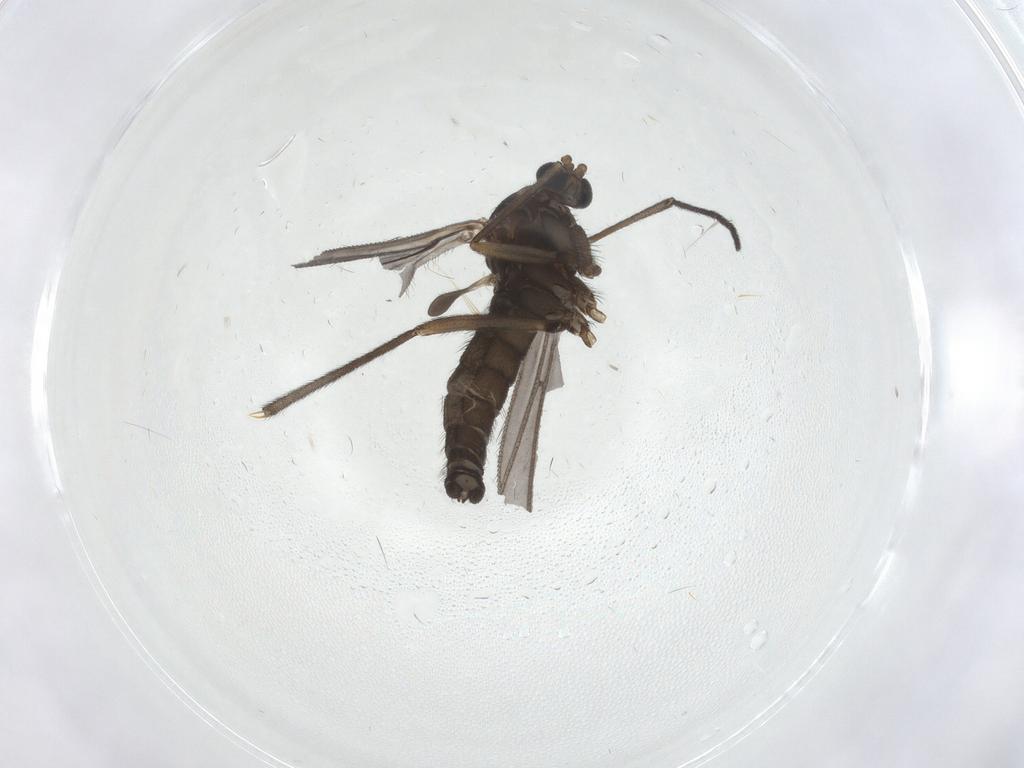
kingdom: Animalia
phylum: Arthropoda
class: Insecta
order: Diptera
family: Sciaridae
